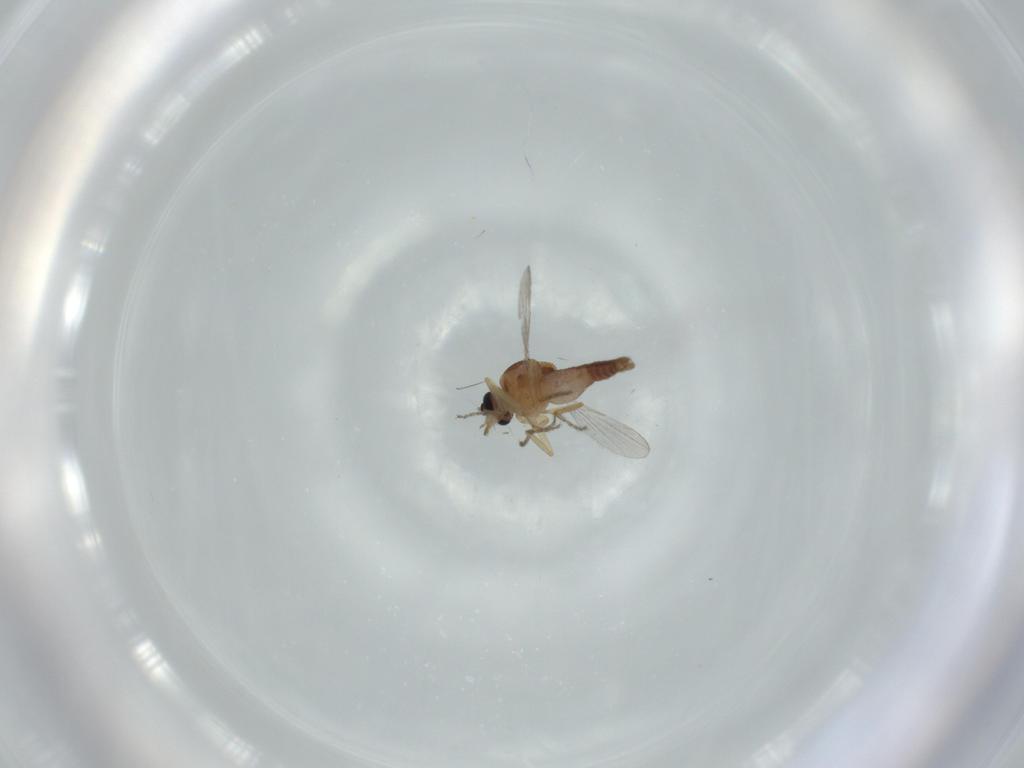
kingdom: Animalia
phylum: Arthropoda
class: Insecta
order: Diptera
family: Ceratopogonidae
